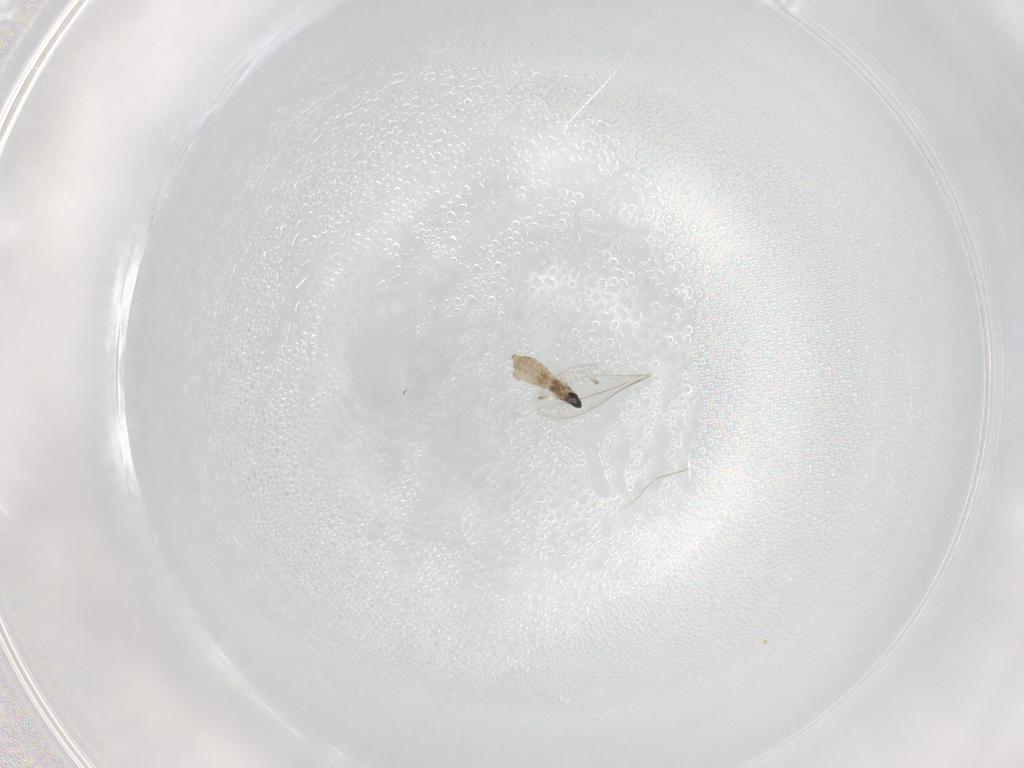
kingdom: Animalia
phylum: Arthropoda
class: Insecta
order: Diptera
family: Cecidomyiidae
